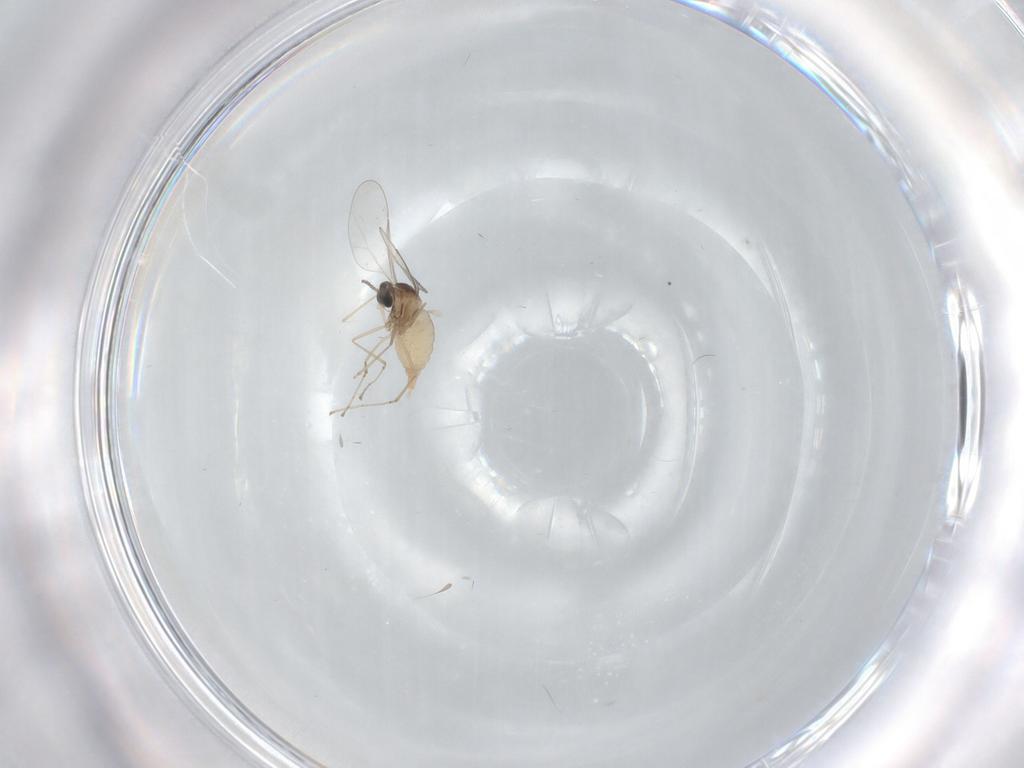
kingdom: Animalia
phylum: Arthropoda
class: Insecta
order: Diptera
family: Cecidomyiidae
